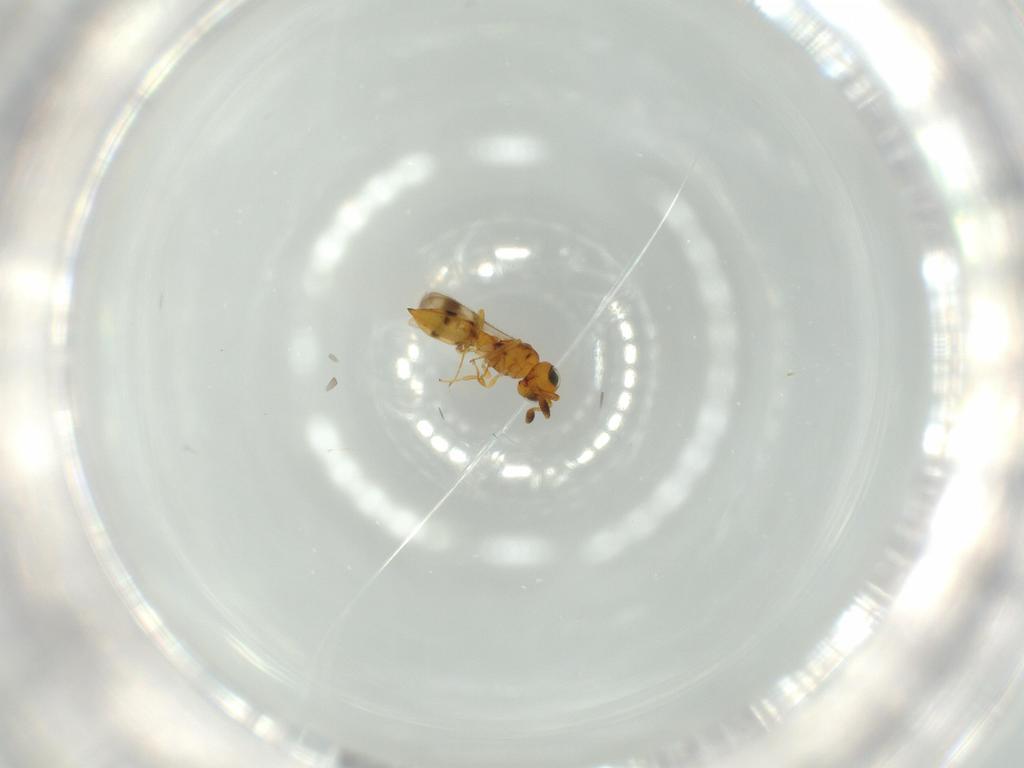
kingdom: Animalia
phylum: Arthropoda
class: Insecta
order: Hymenoptera
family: Scelionidae
